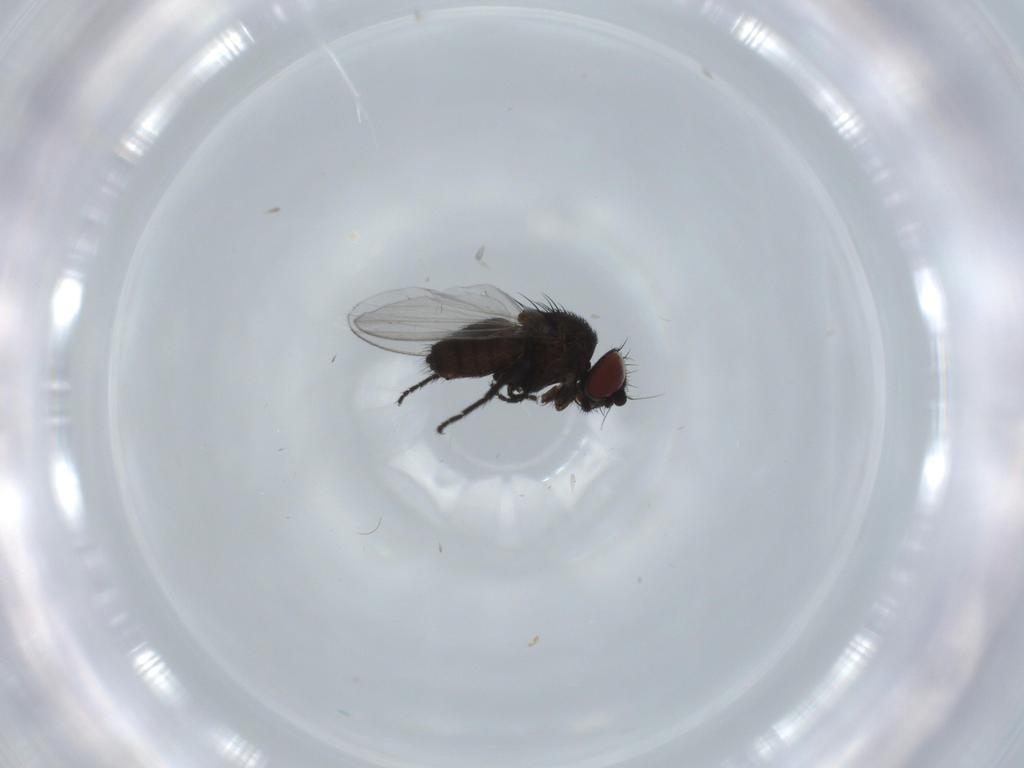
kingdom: Animalia
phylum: Arthropoda
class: Insecta
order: Diptera
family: Milichiidae
